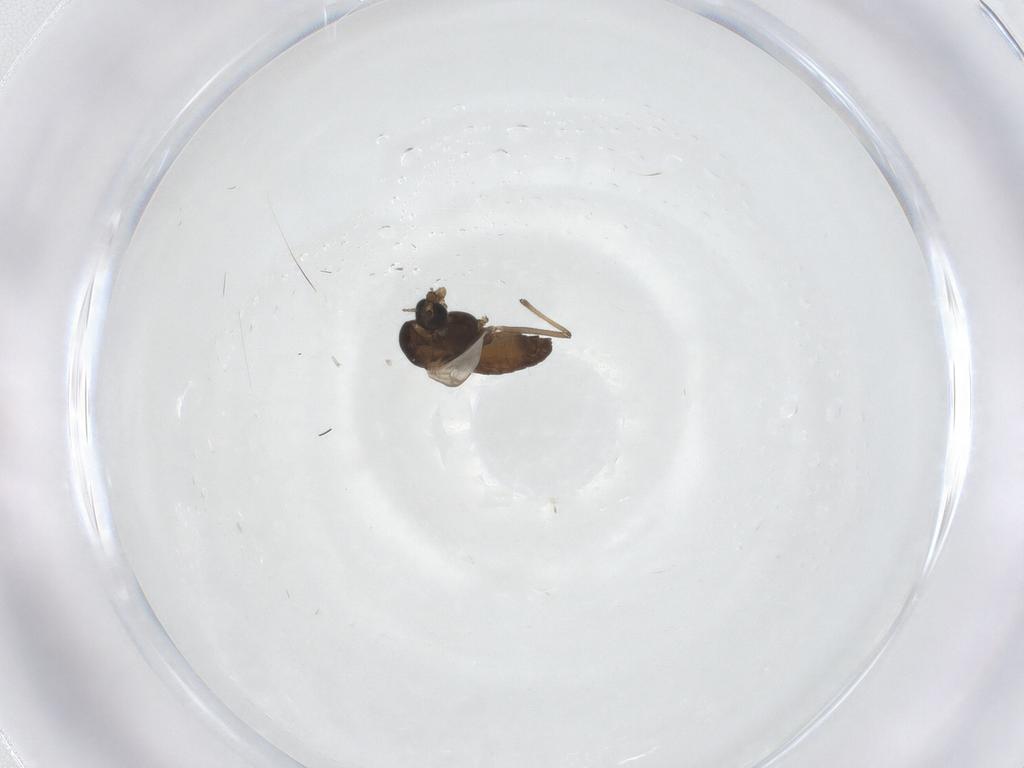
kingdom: Animalia
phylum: Arthropoda
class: Insecta
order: Diptera
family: Chironomidae
